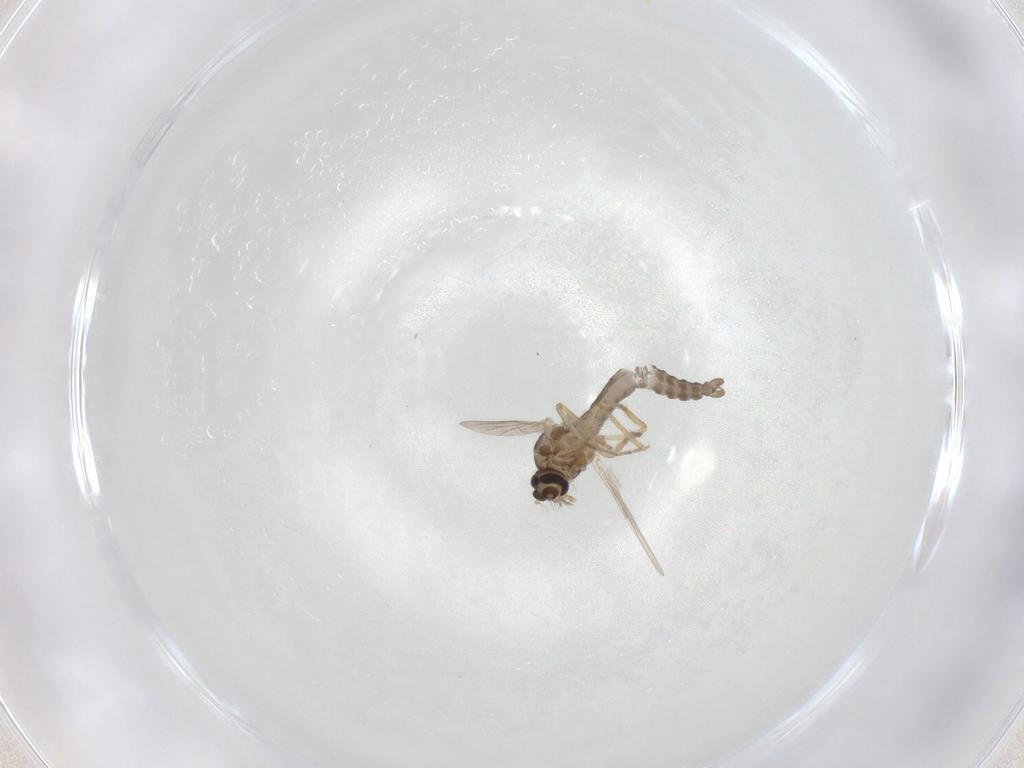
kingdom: Animalia
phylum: Arthropoda
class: Insecta
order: Diptera
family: Ceratopogonidae
